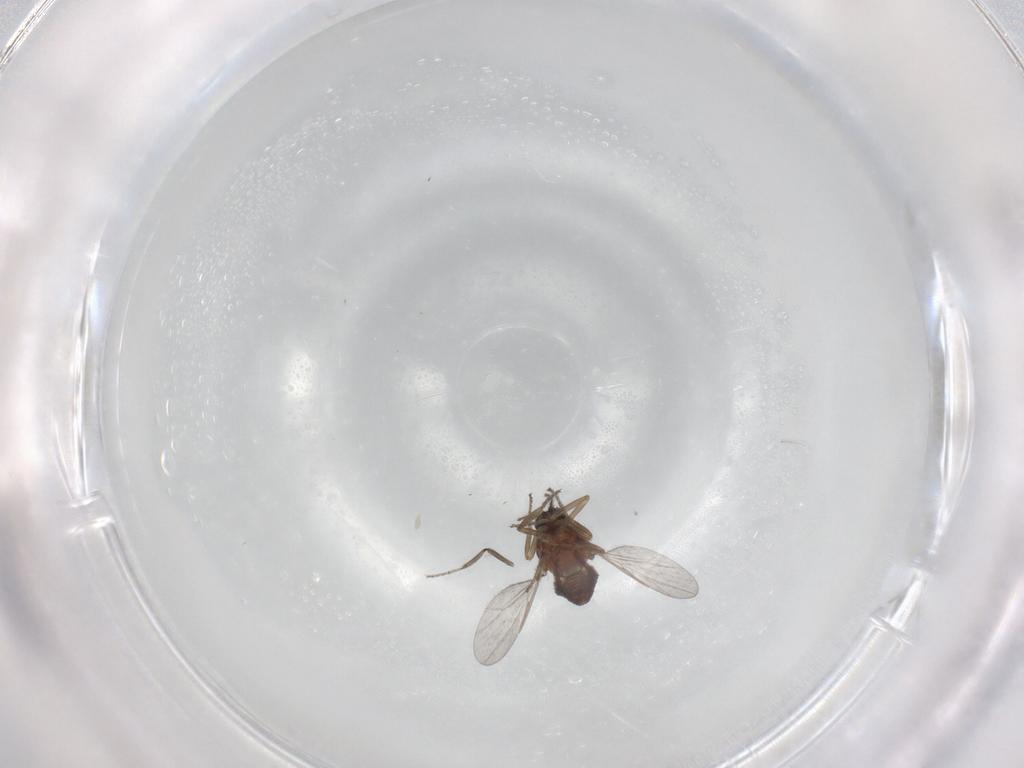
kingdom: Animalia
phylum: Arthropoda
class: Insecta
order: Diptera
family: Ceratopogonidae
